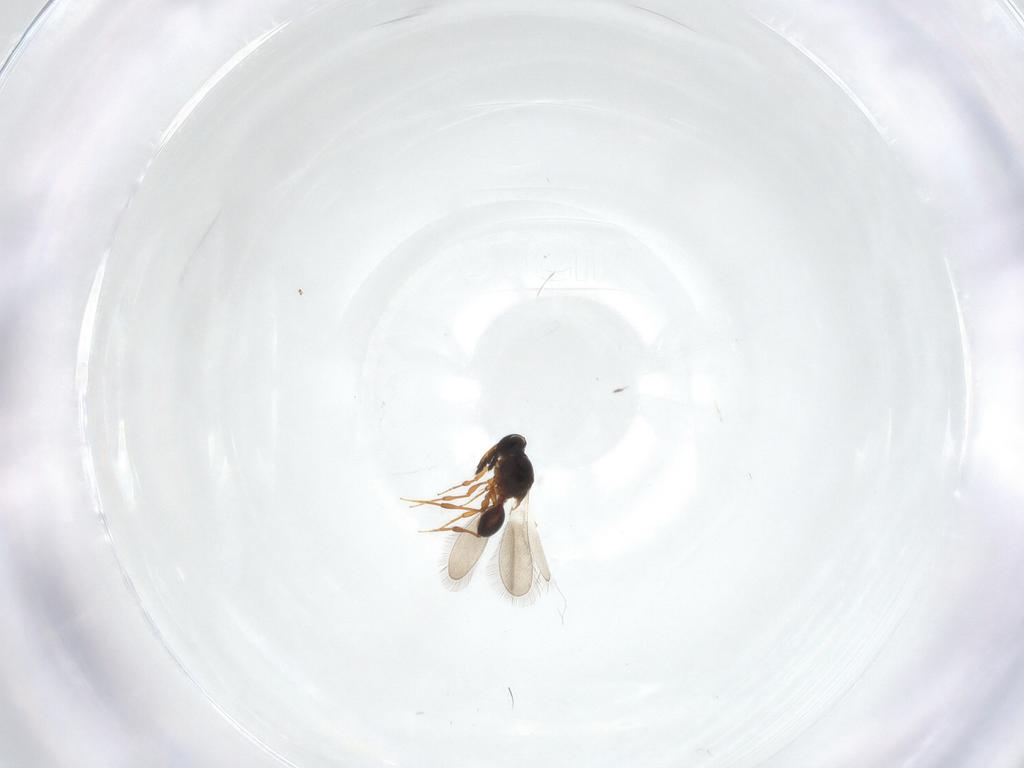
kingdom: Animalia
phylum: Arthropoda
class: Insecta
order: Hymenoptera
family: Platygastridae
